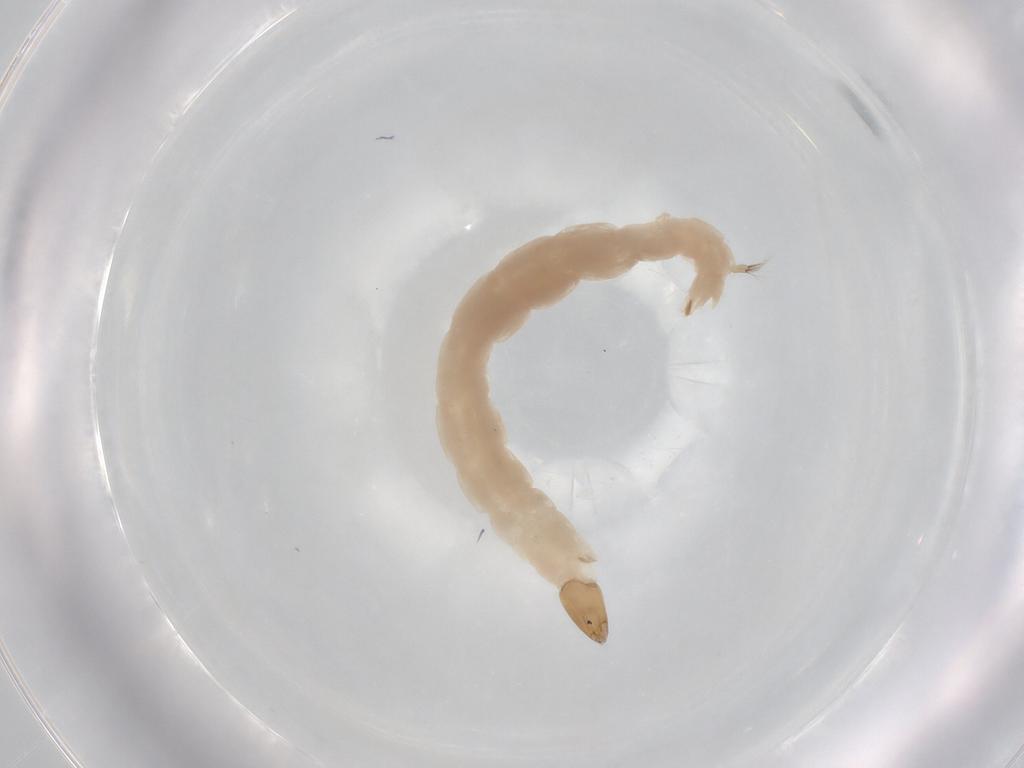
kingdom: Animalia
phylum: Arthropoda
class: Insecta
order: Diptera
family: Chironomidae
